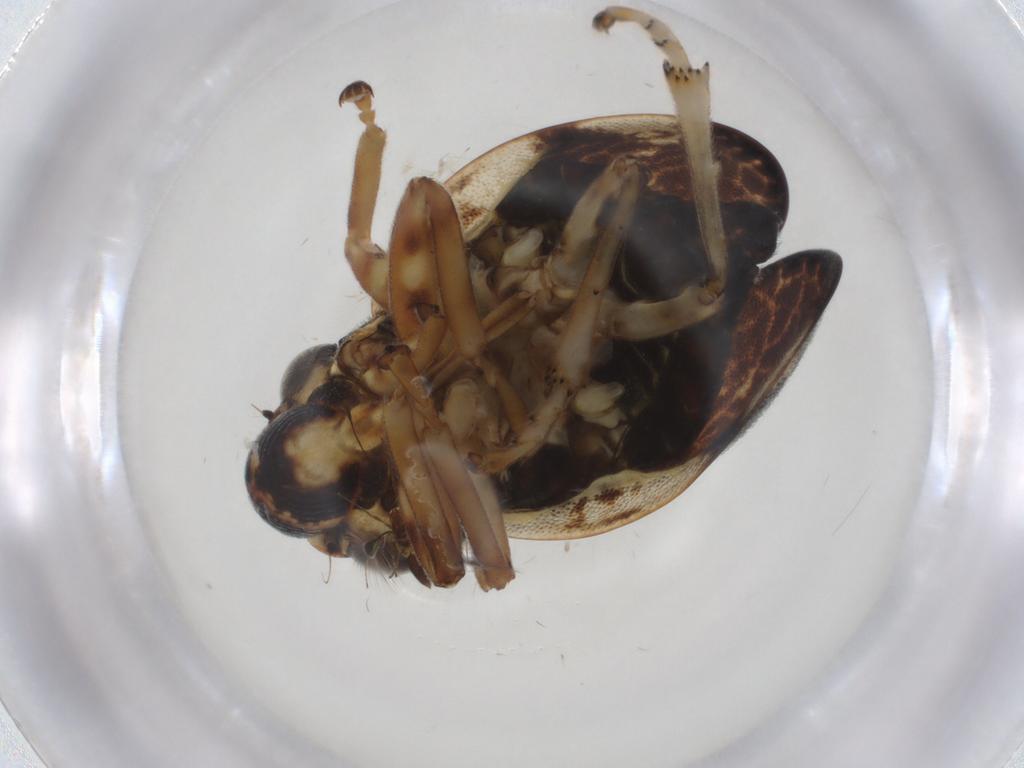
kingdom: Animalia
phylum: Arthropoda
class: Insecta
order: Hemiptera
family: Aphrophoridae
